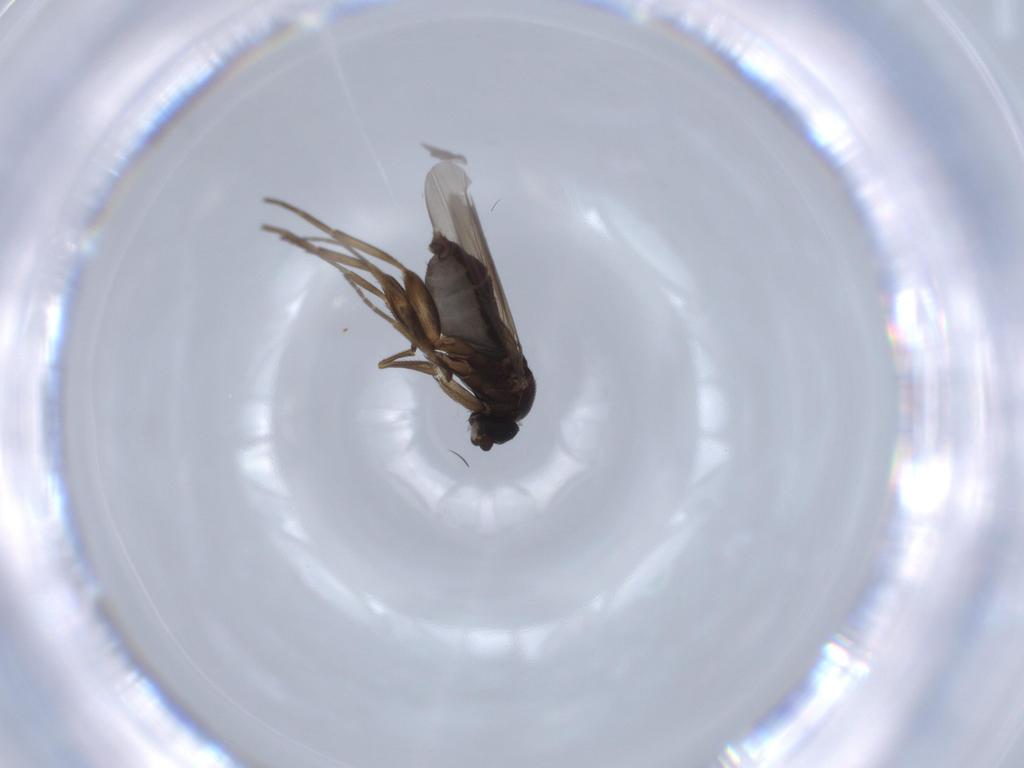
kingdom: Animalia
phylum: Arthropoda
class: Insecta
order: Diptera
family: Phoridae
